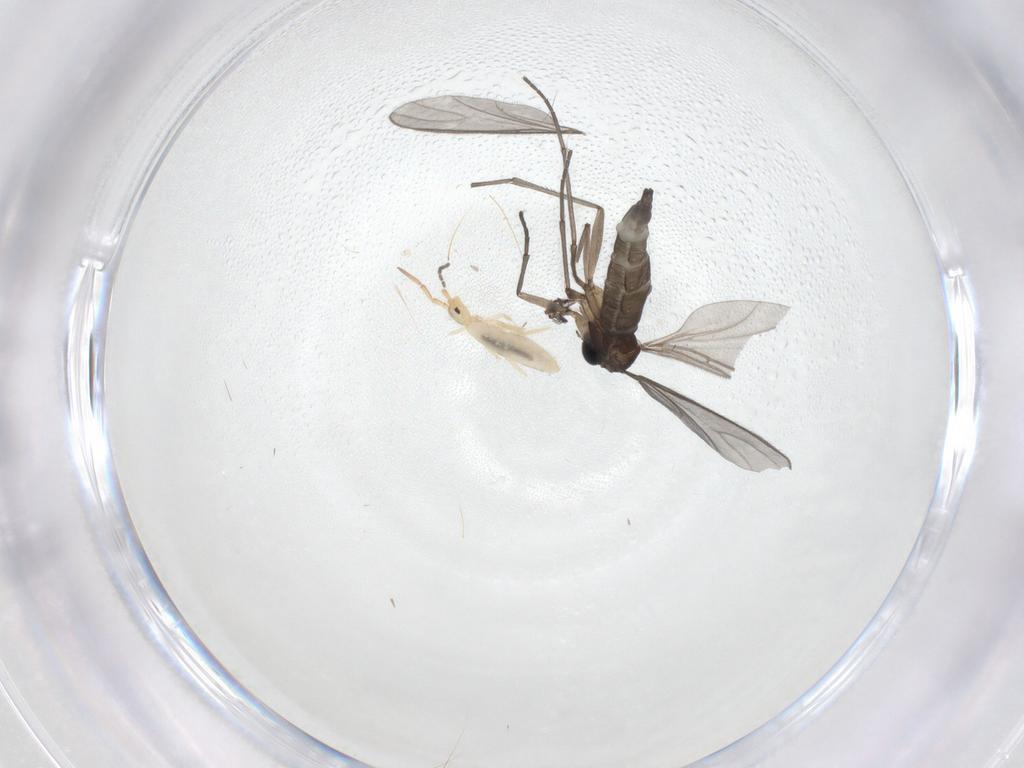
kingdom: Animalia
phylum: Arthropoda
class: Insecta
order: Diptera
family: Sciaridae
